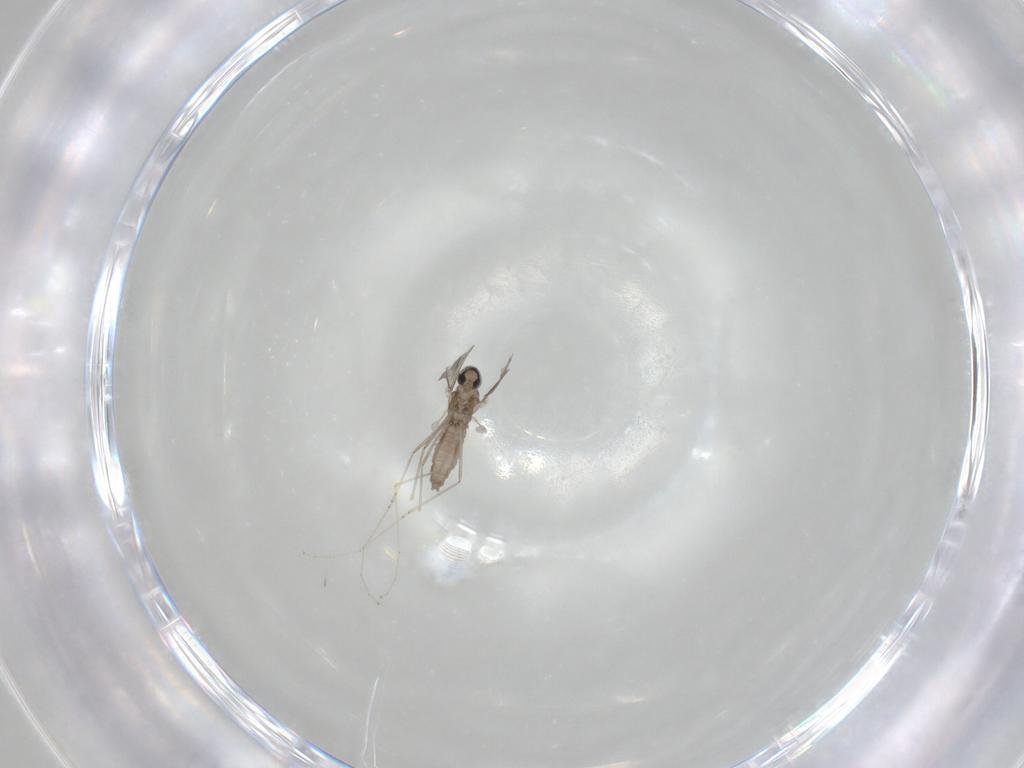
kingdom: Animalia
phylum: Arthropoda
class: Insecta
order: Diptera
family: Cecidomyiidae
